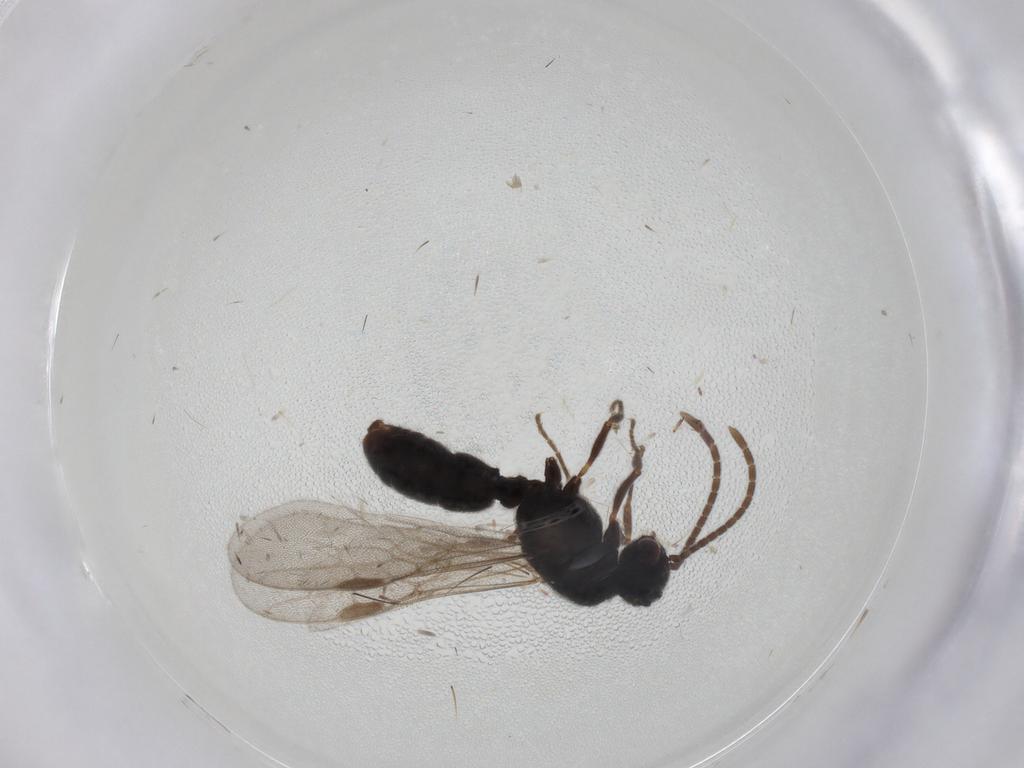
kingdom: Animalia
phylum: Arthropoda
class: Insecta
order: Hymenoptera
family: Formicidae
